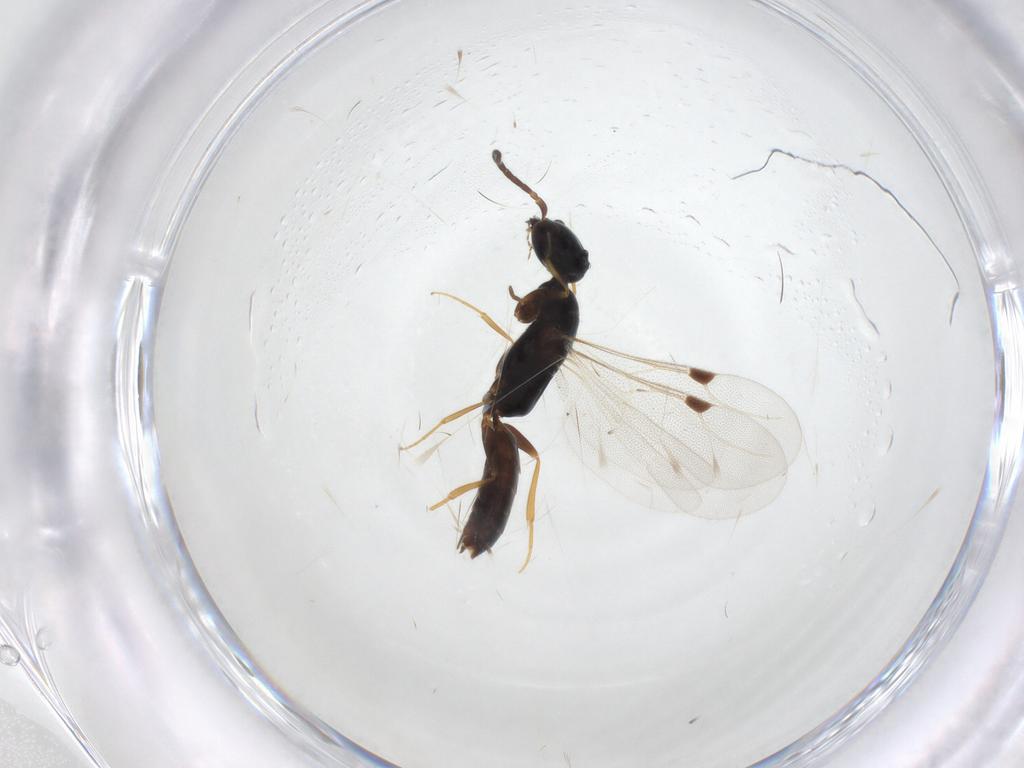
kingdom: Animalia
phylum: Arthropoda
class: Insecta
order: Hymenoptera
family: Bethylidae
